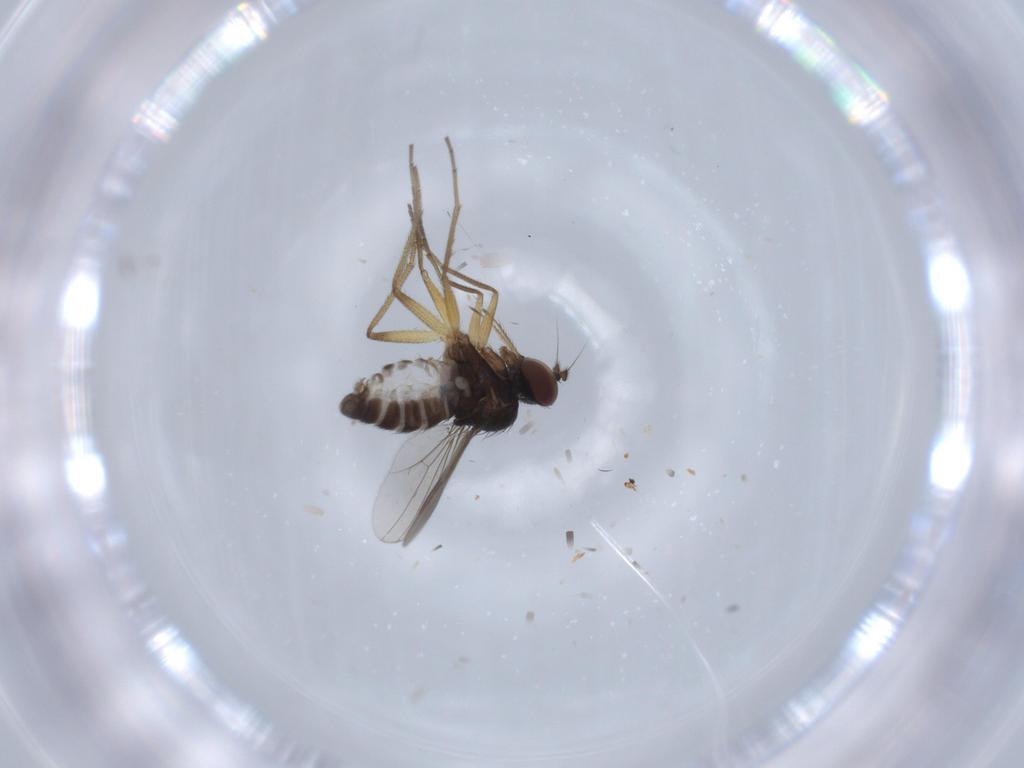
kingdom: Animalia
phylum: Arthropoda
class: Insecta
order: Diptera
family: Dolichopodidae
